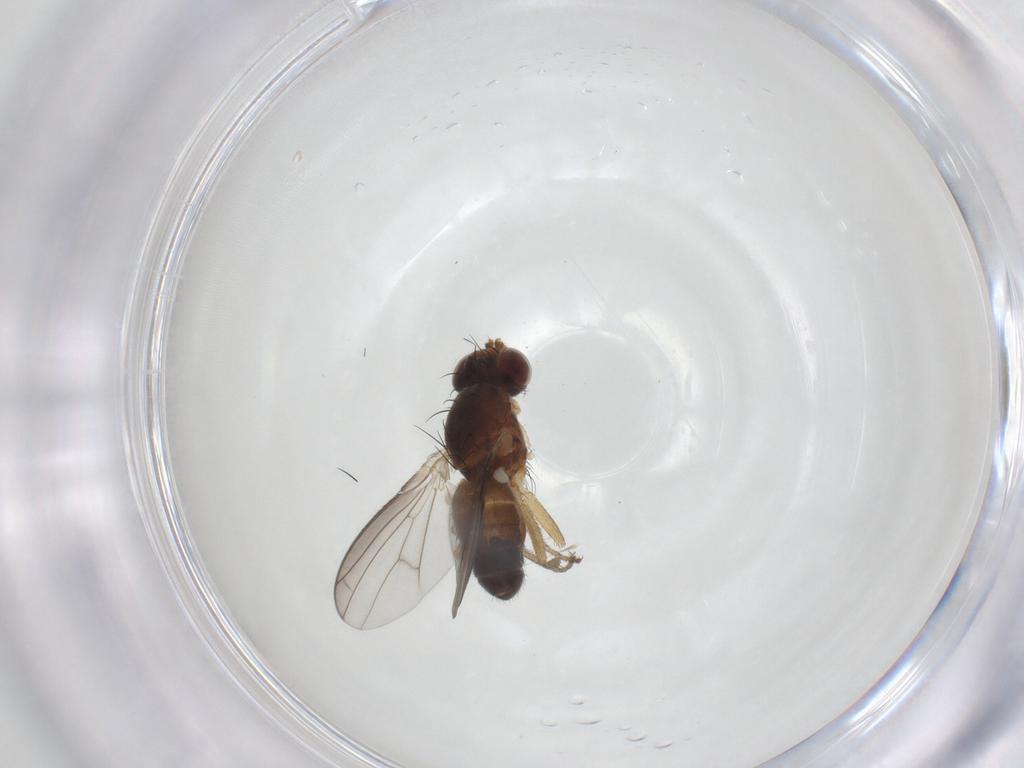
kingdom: Animalia
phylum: Arthropoda
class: Insecta
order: Diptera
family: Heleomyzidae
